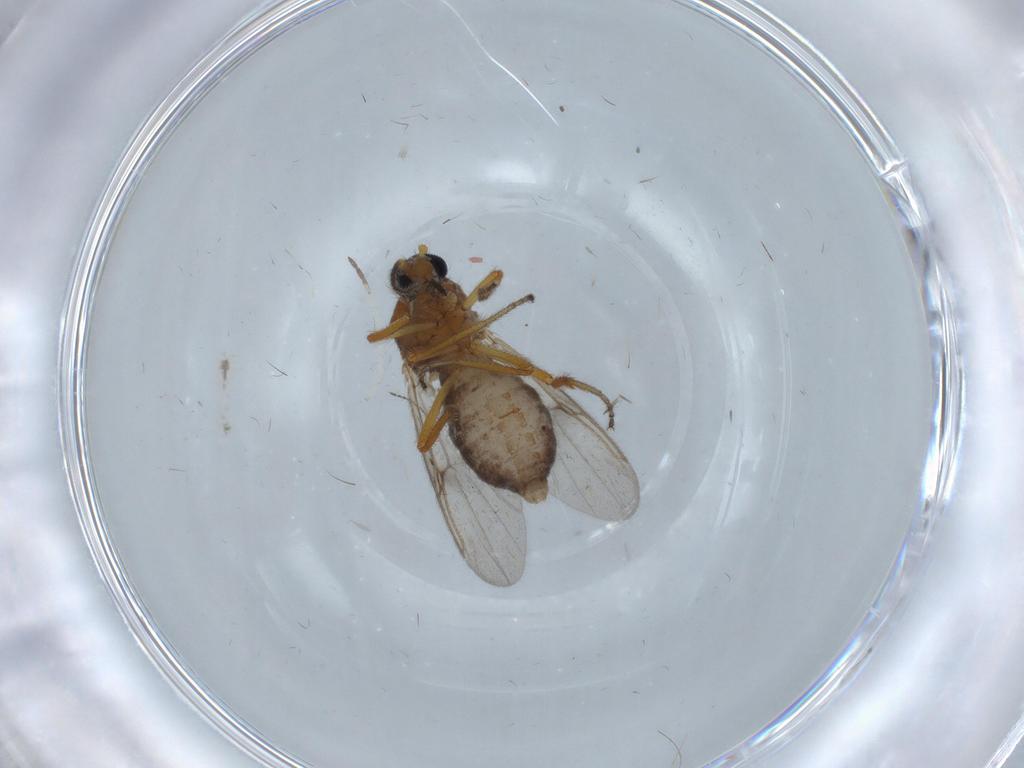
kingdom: Animalia
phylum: Arthropoda
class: Insecta
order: Diptera
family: Ceratopogonidae
